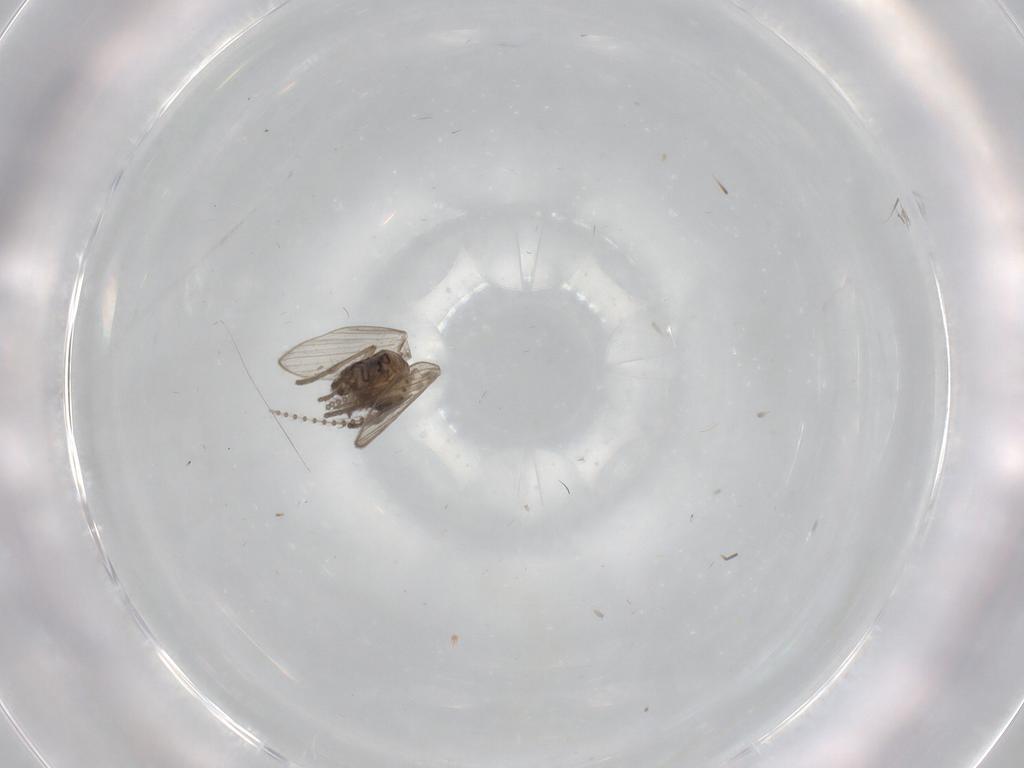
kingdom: Animalia
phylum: Arthropoda
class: Insecta
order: Diptera
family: Psychodidae
